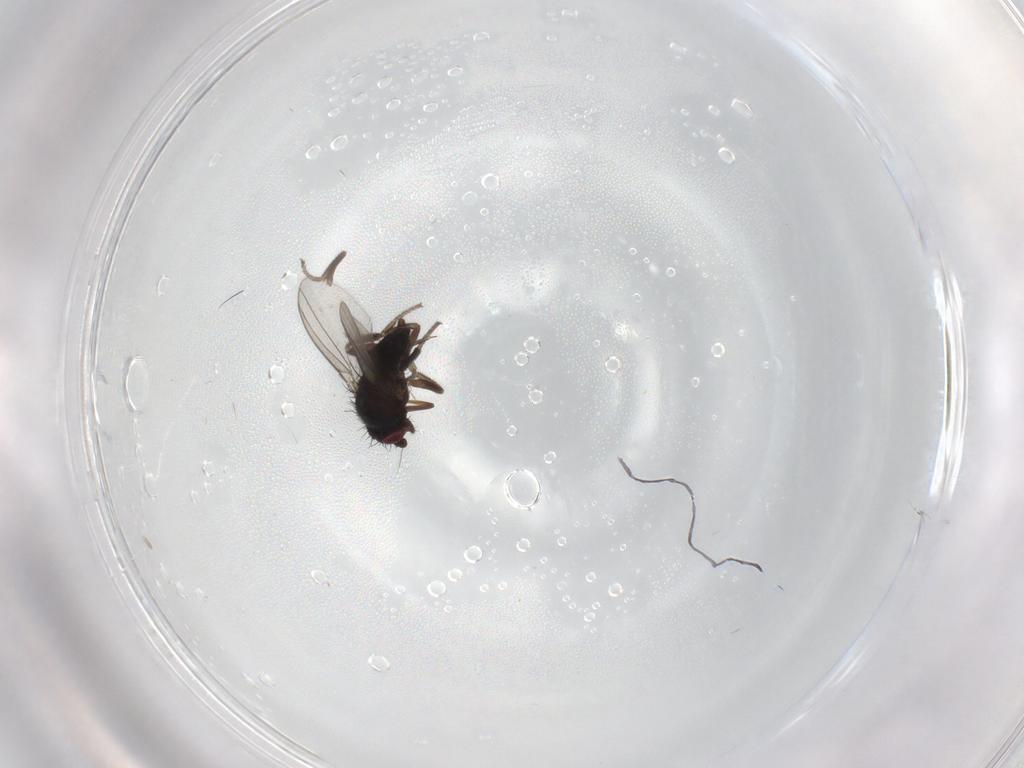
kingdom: Animalia
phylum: Arthropoda
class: Insecta
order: Diptera
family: Milichiidae
